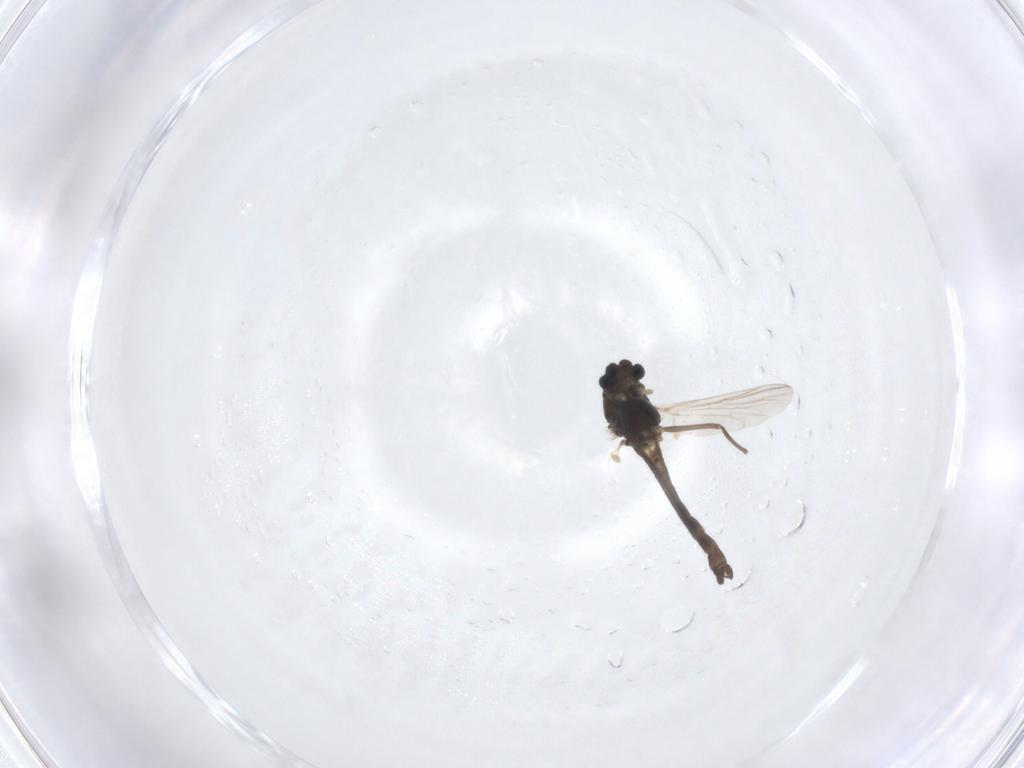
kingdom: Animalia
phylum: Arthropoda
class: Insecta
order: Diptera
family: Chironomidae
